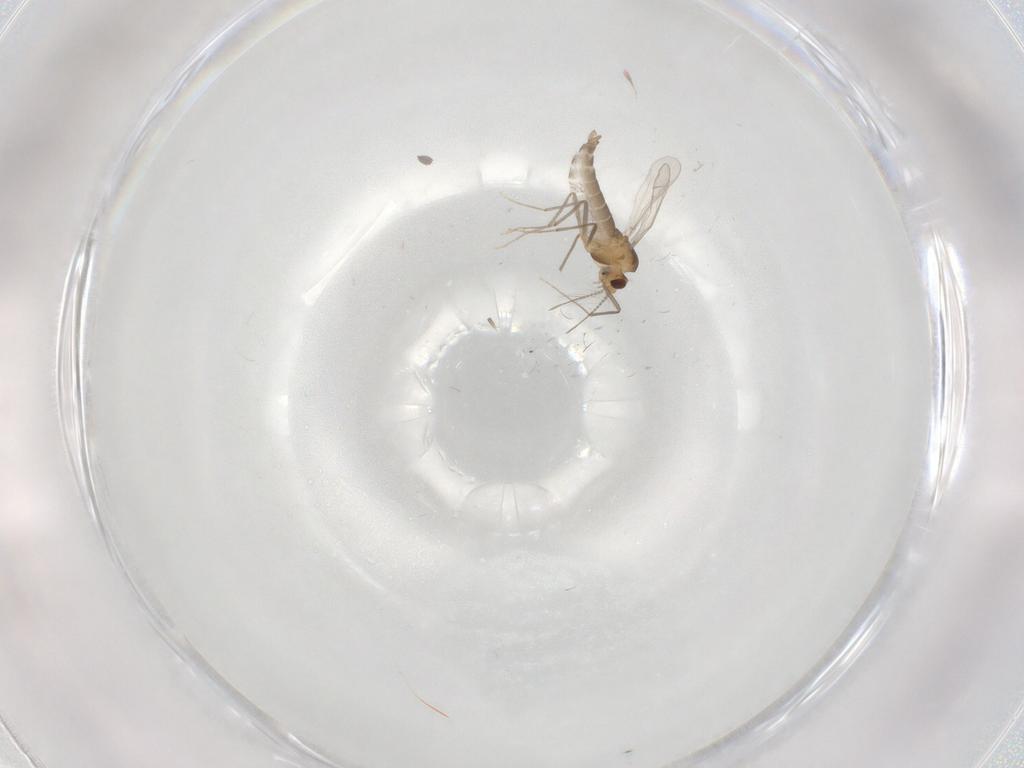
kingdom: Animalia
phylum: Arthropoda
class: Insecta
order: Diptera
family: Chironomidae
